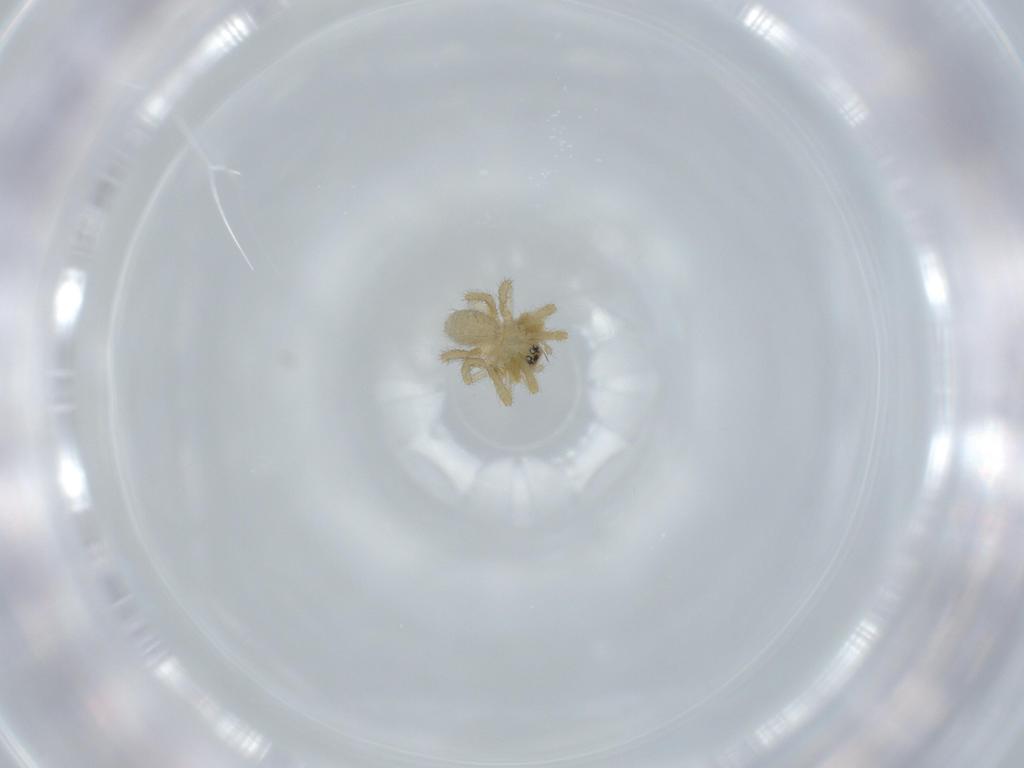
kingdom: Animalia
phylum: Arthropoda
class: Arachnida
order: Araneae
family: Linyphiidae
